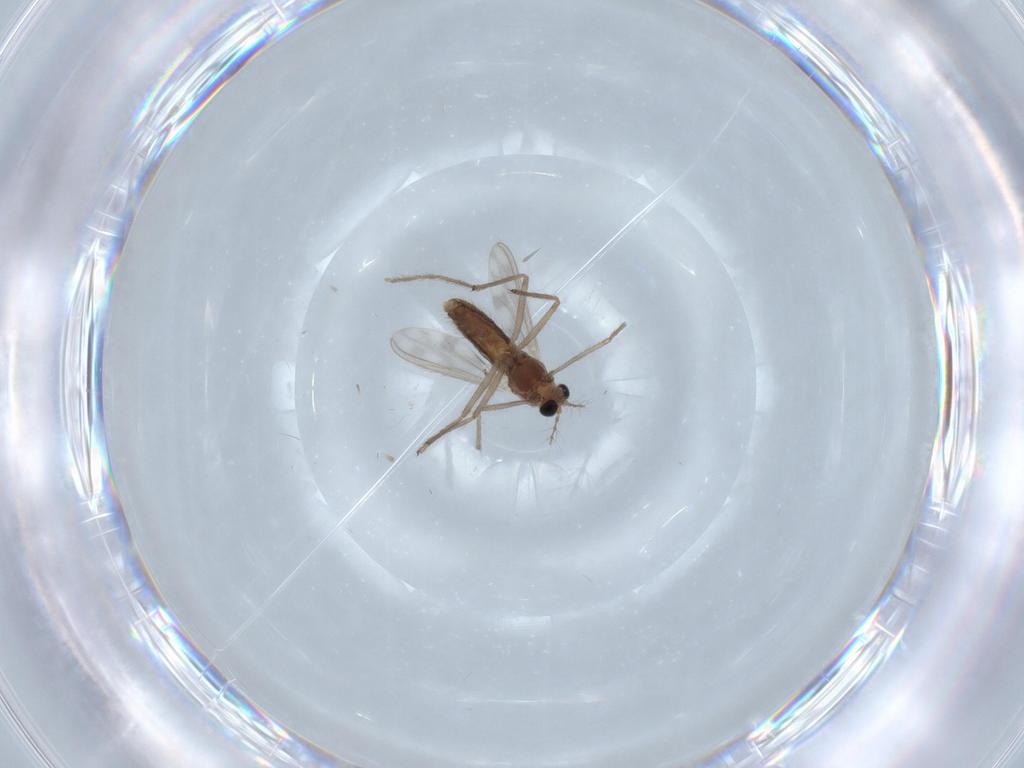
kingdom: Animalia
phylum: Arthropoda
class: Insecta
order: Diptera
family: Chironomidae
